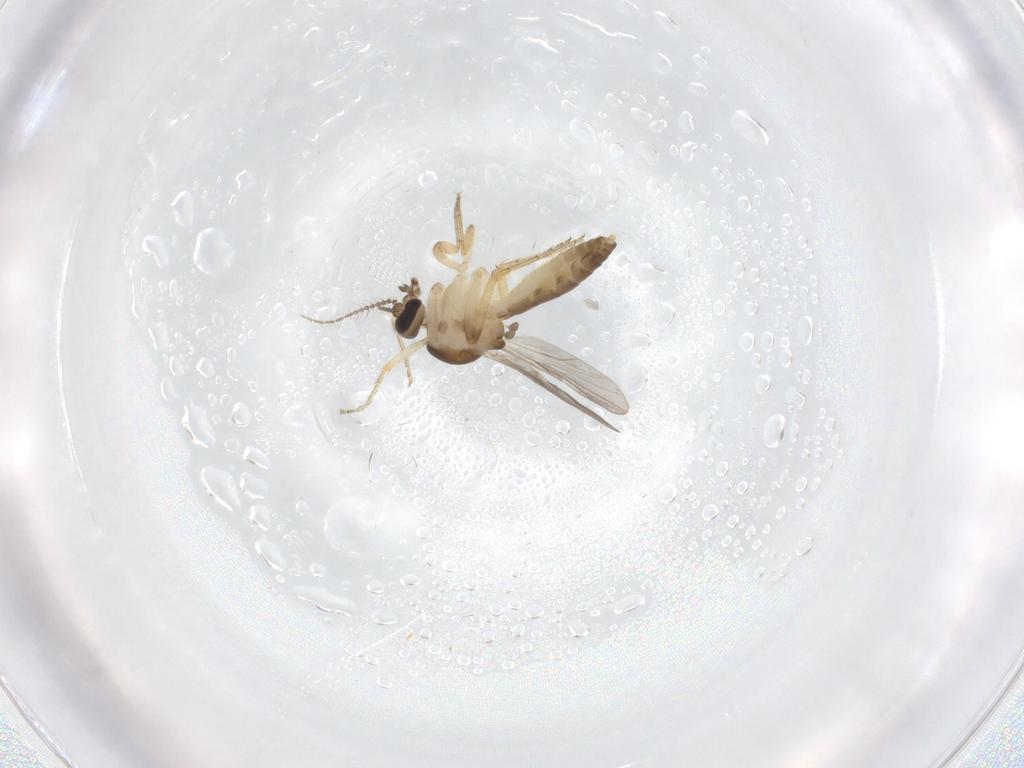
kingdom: Animalia
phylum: Arthropoda
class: Insecta
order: Diptera
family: Ceratopogonidae
